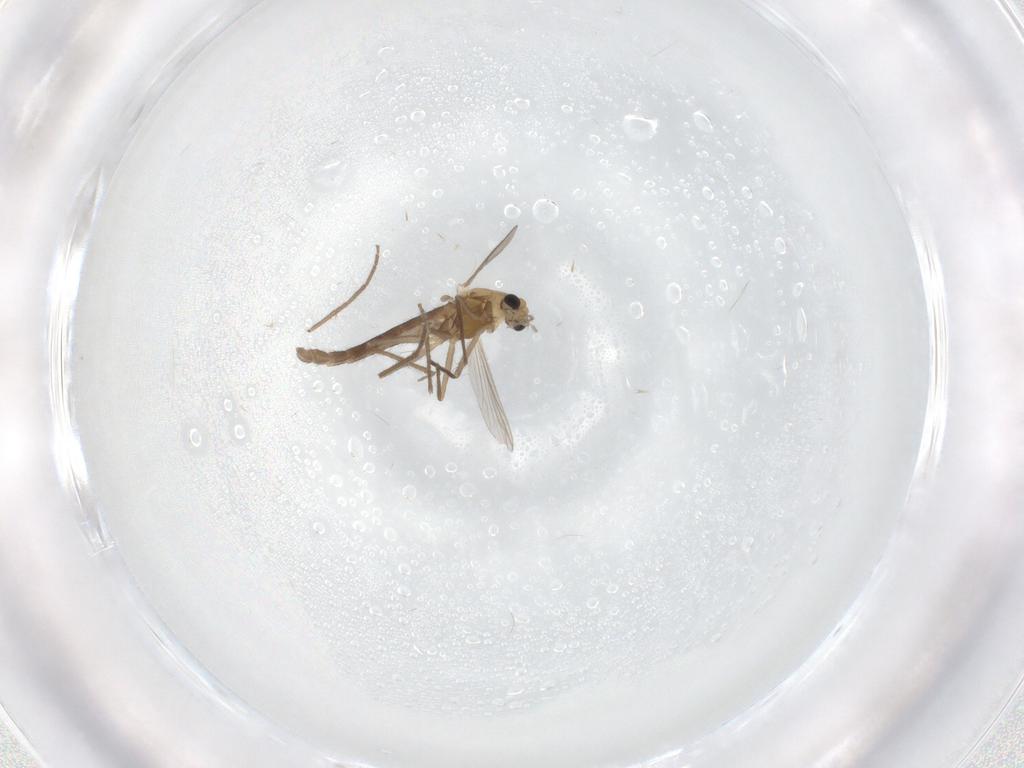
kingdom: Animalia
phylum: Arthropoda
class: Insecta
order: Diptera
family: Chironomidae
